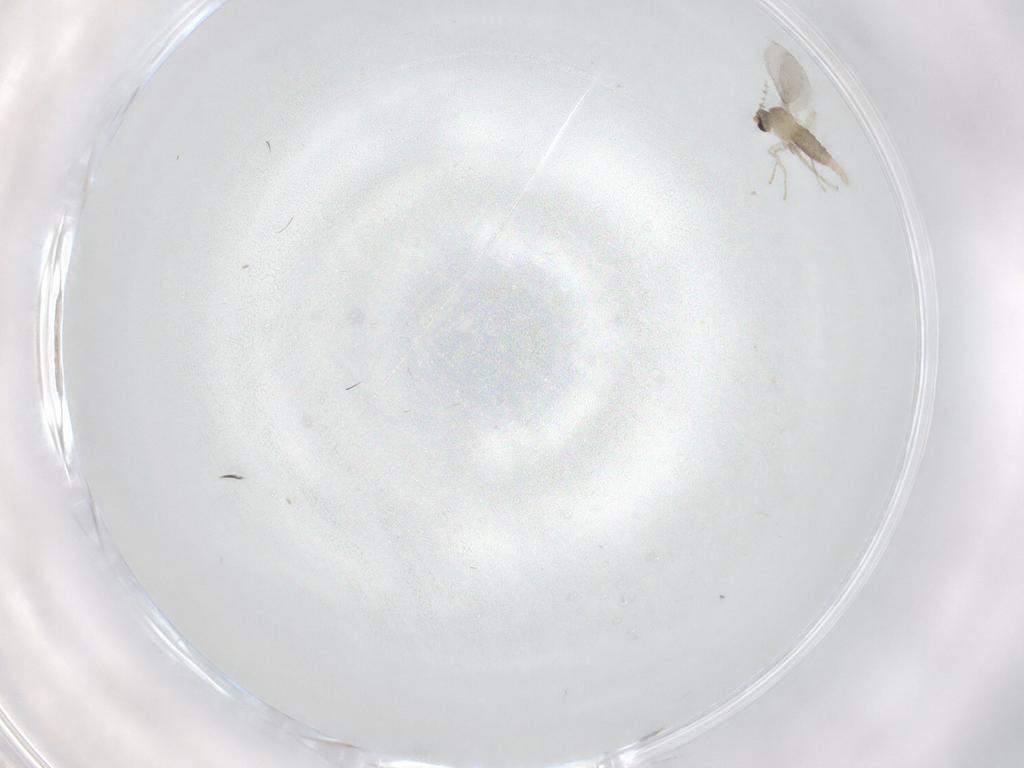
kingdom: Animalia
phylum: Arthropoda
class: Insecta
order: Diptera
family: Cecidomyiidae
